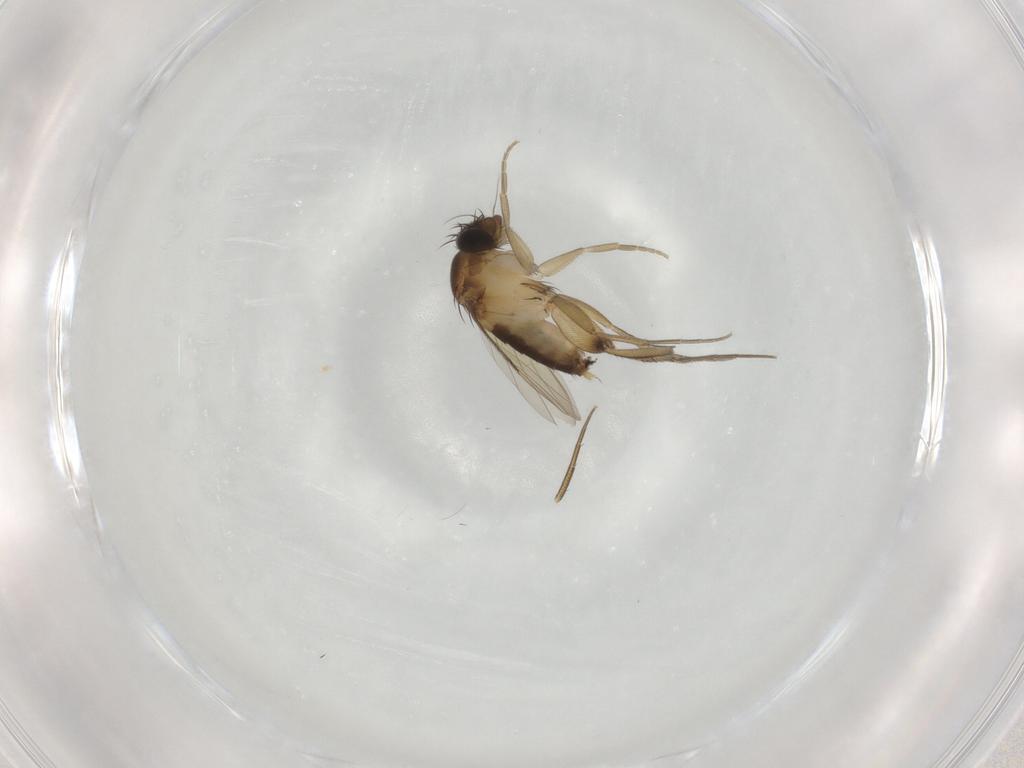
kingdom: Animalia
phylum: Arthropoda
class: Insecta
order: Diptera
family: Phoridae
